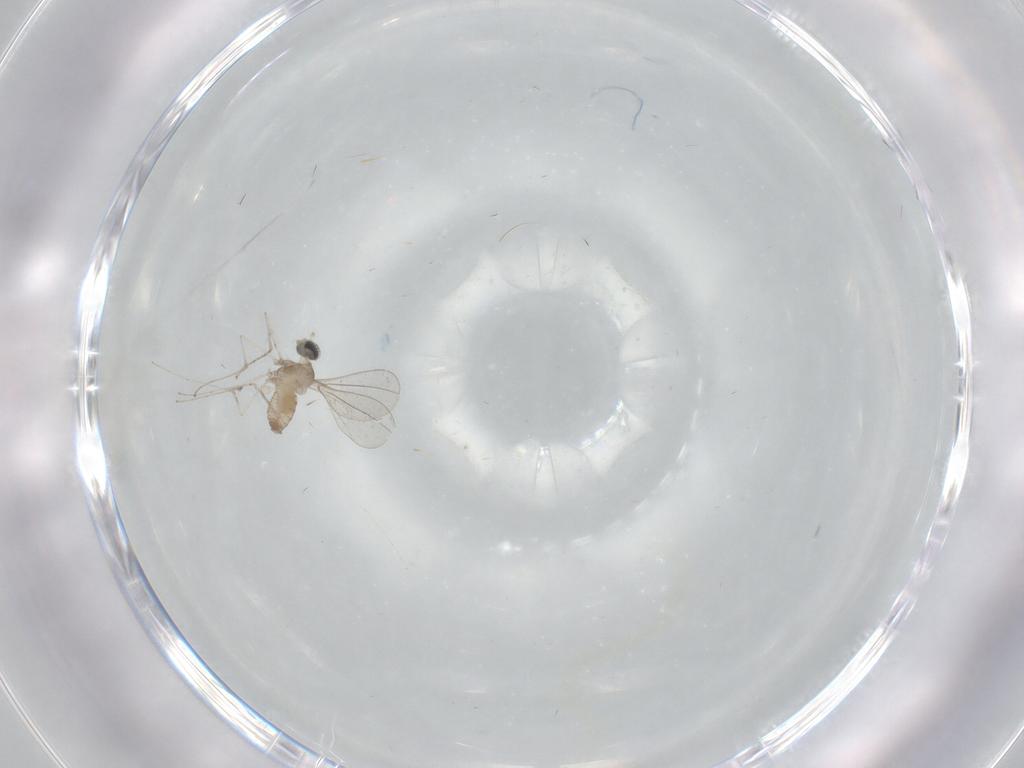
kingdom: Animalia
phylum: Arthropoda
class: Insecta
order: Diptera
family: Cecidomyiidae
